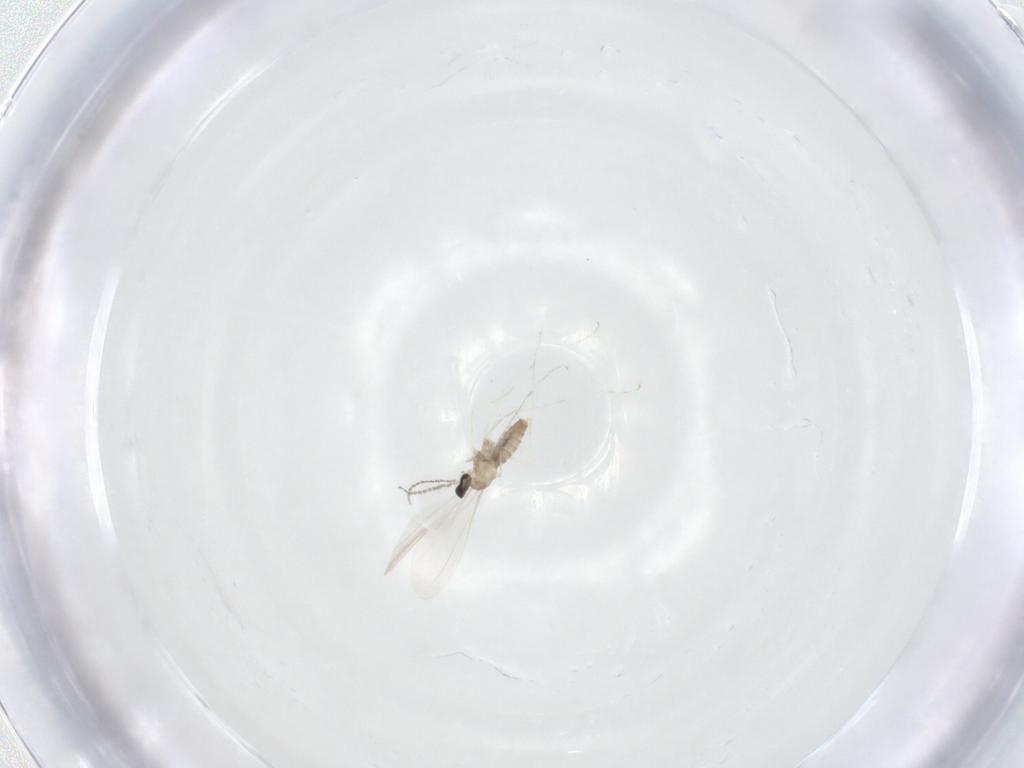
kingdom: Animalia
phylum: Arthropoda
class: Insecta
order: Diptera
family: Cecidomyiidae
